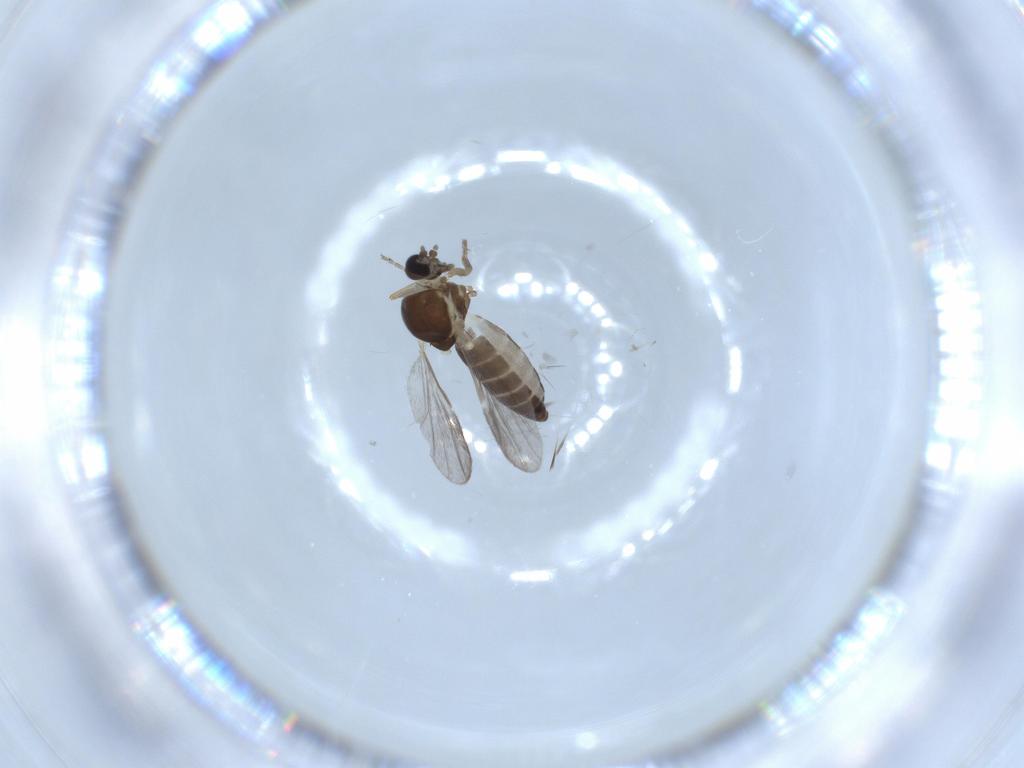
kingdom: Animalia
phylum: Arthropoda
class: Insecta
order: Diptera
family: Ceratopogonidae
